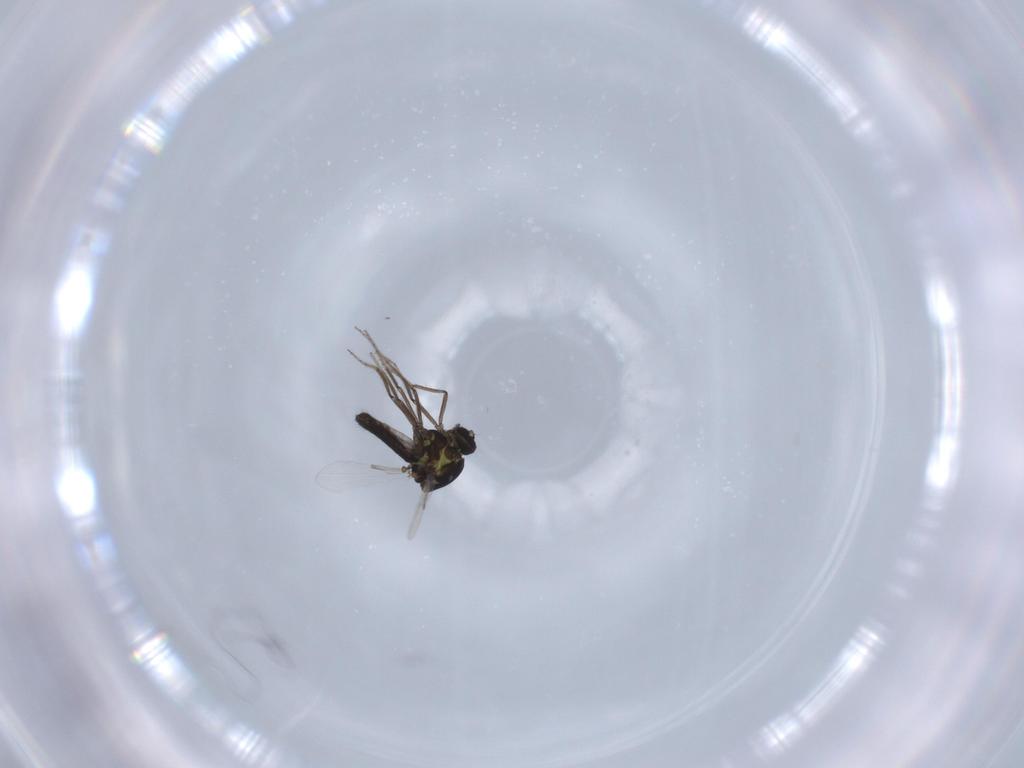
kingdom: Animalia
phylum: Arthropoda
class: Insecta
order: Diptera
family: Ceratopogonidae
